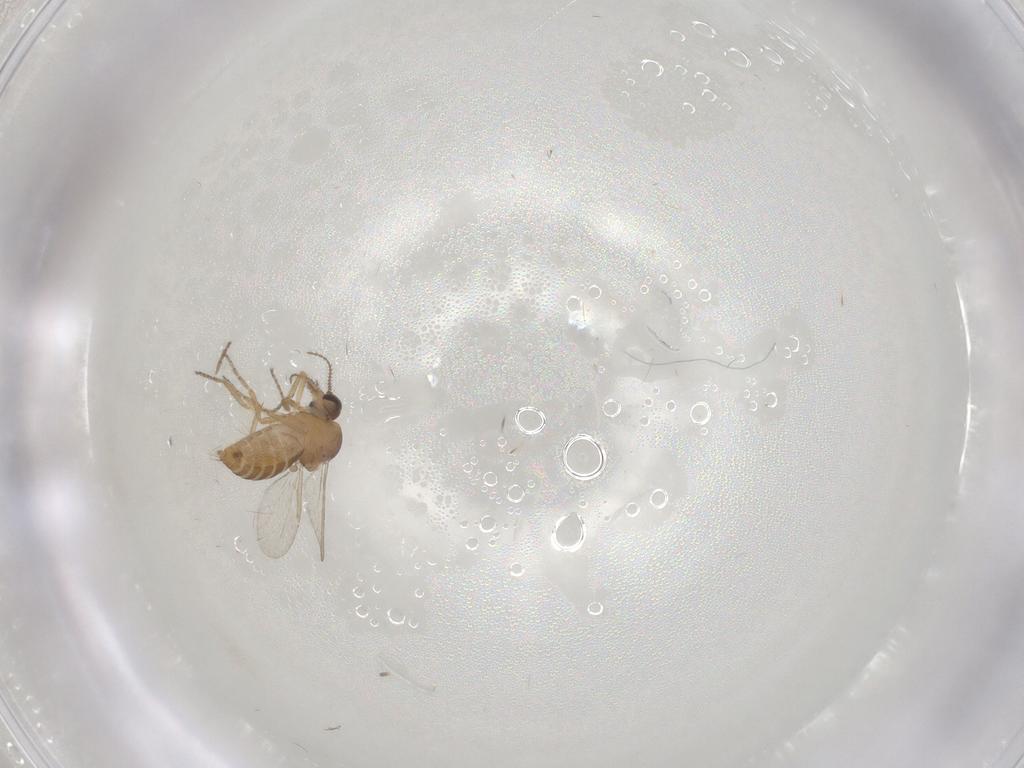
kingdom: Animalia
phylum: Arthropoda
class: Insecta
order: Diptera
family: Ceratopogonidae
